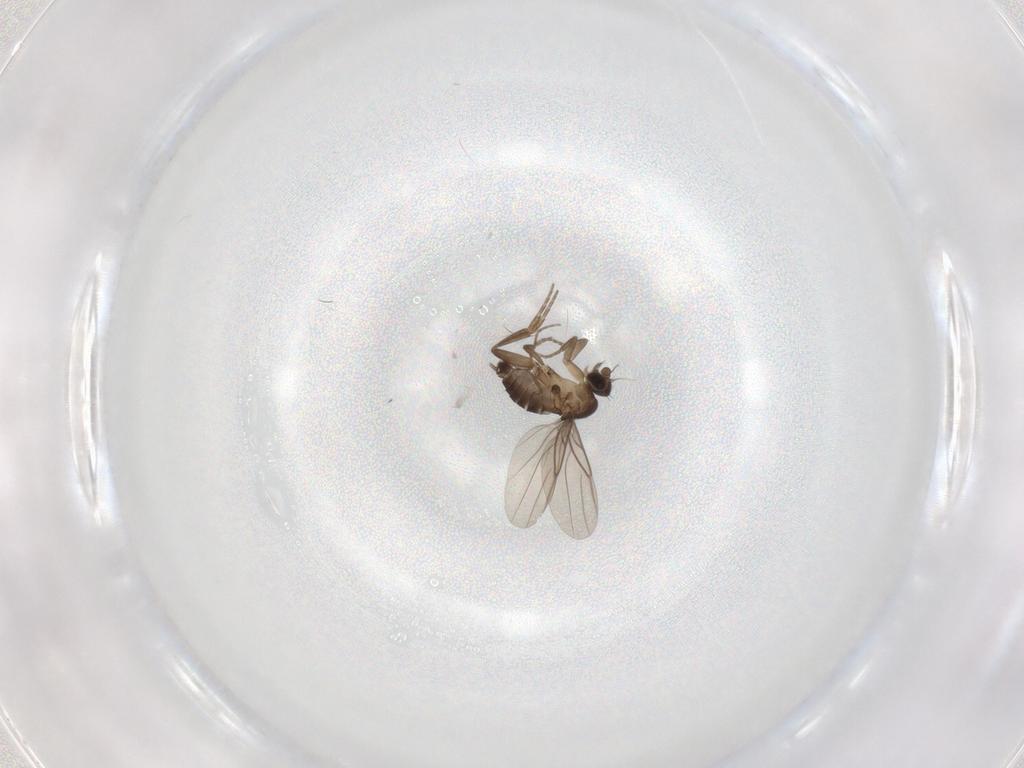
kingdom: Animalia
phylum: Arthropoda
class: Insecta
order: Diptera
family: Phoridae
